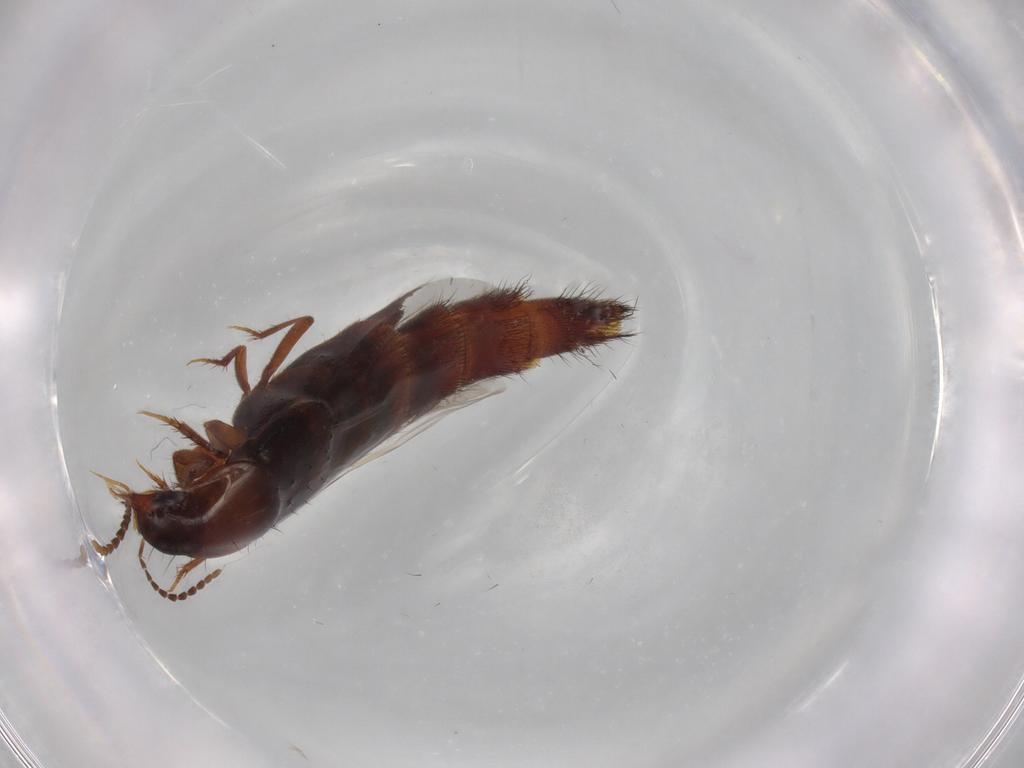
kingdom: Animalia
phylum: Arthropoda
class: Insecta
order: Coleoptera
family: Staphylinidae
